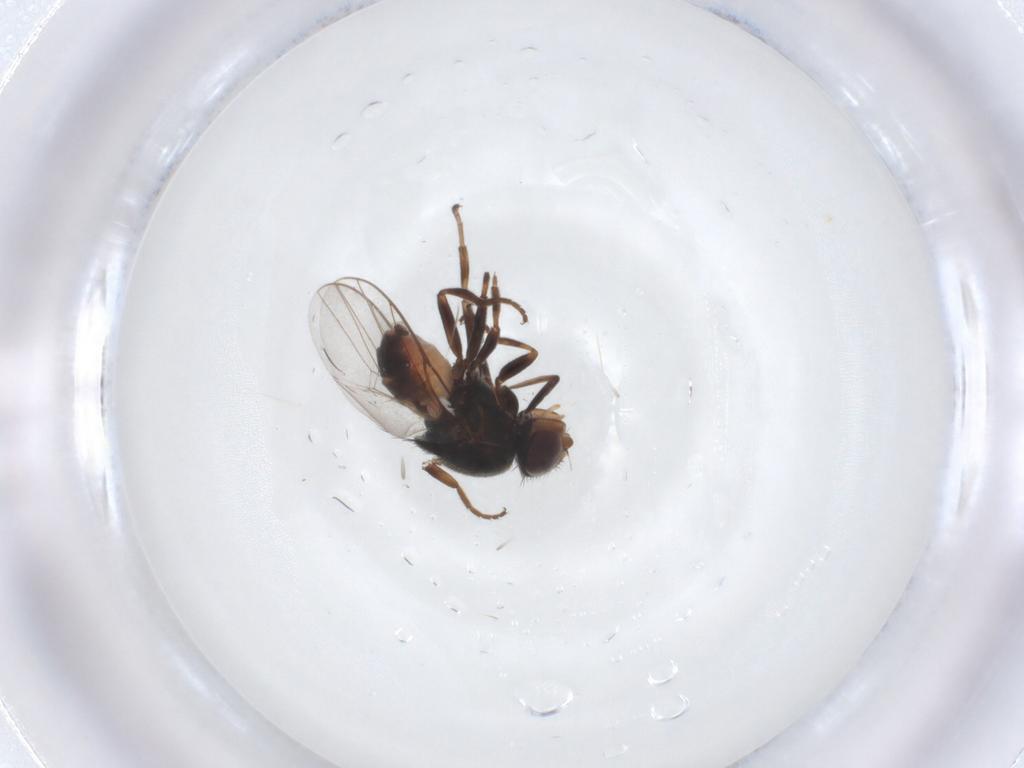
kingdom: Animalia
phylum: Arthropoda
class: Insecta
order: Diptera
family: Chloropidae
